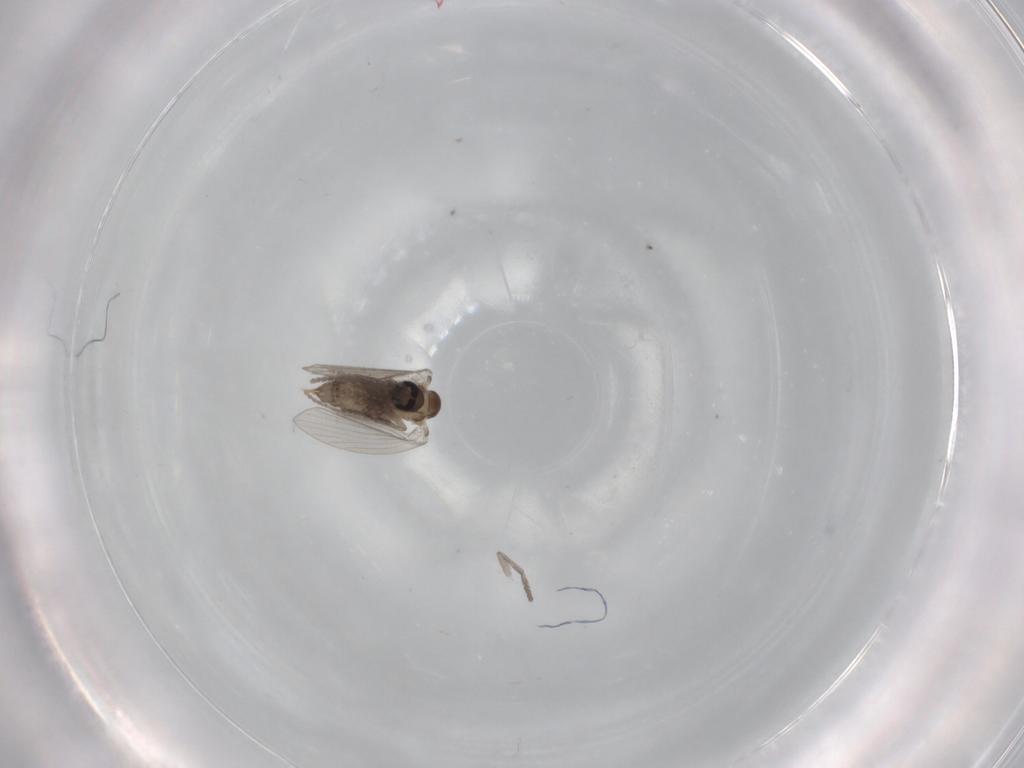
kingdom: Animalia
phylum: Arthropoda
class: Insecta
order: Diptera
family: Psychodidae
